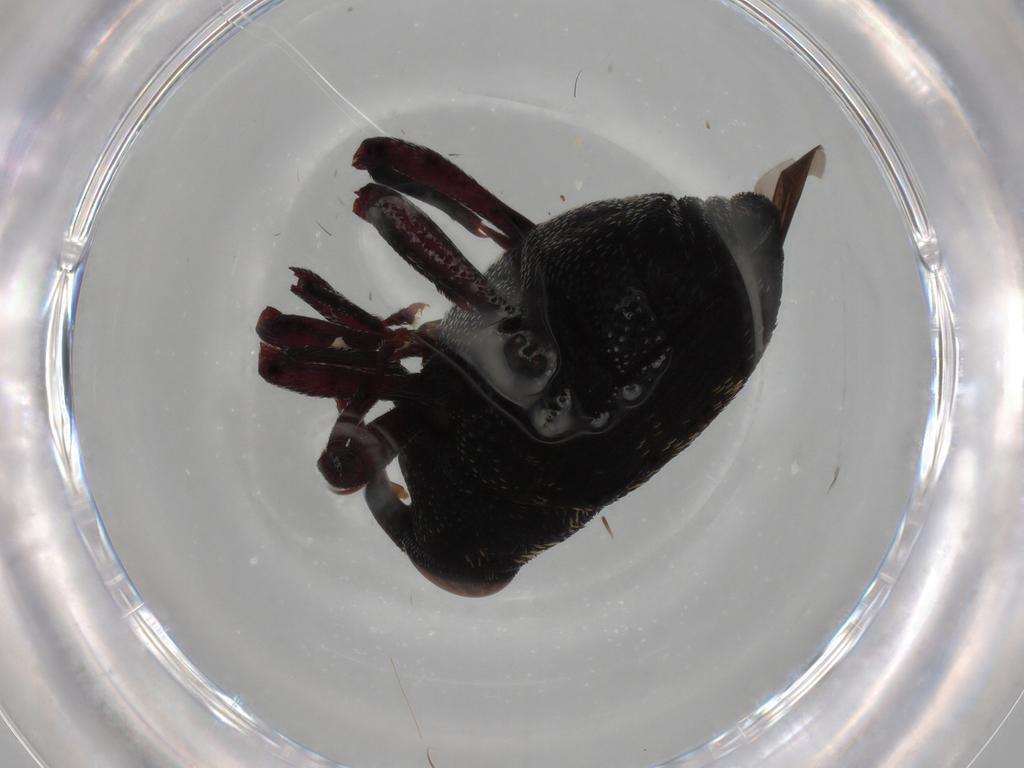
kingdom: Animalia
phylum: Arthropoda
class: Insecta
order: Coleoptera
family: Curculionidae
